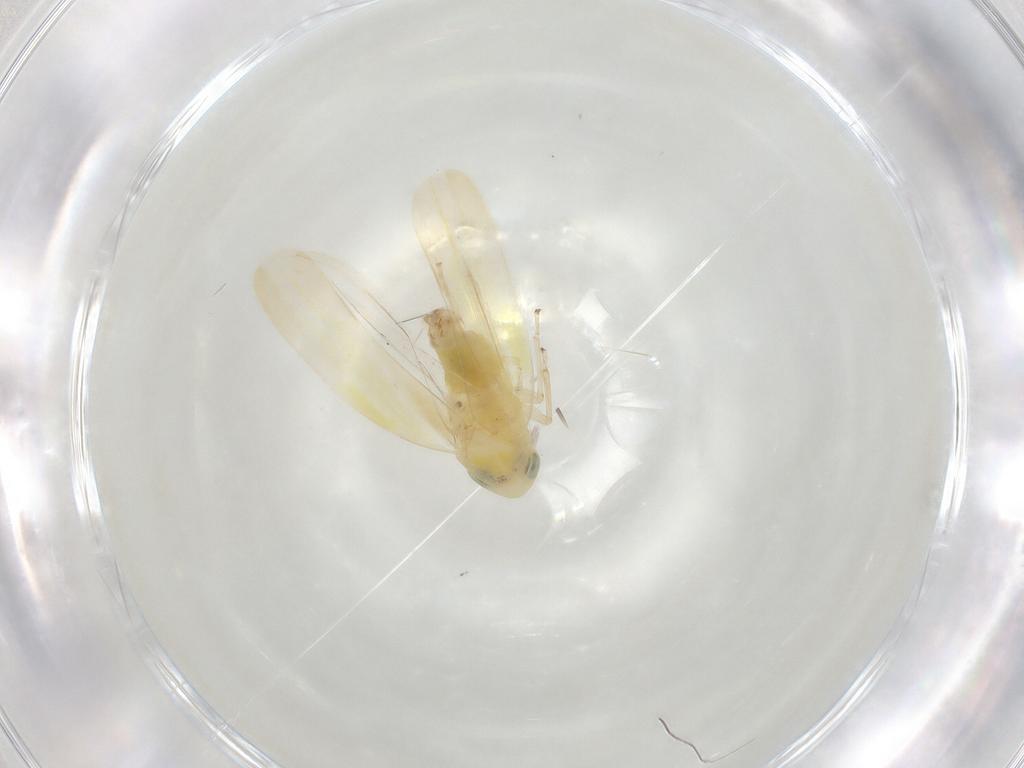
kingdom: Animalia
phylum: Arthropoda
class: Insecta
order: Hemiptera
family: Cicadellidae
